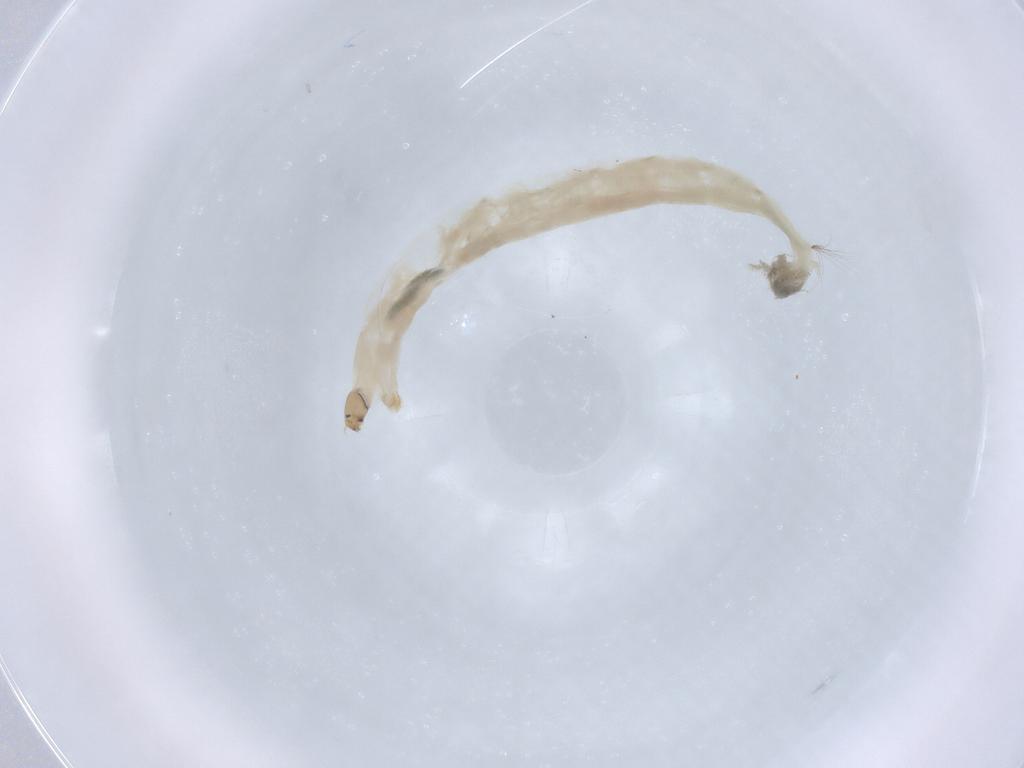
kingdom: Animalia
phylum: Arthropoda
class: Insecta
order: Diptera
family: Chironomidae
